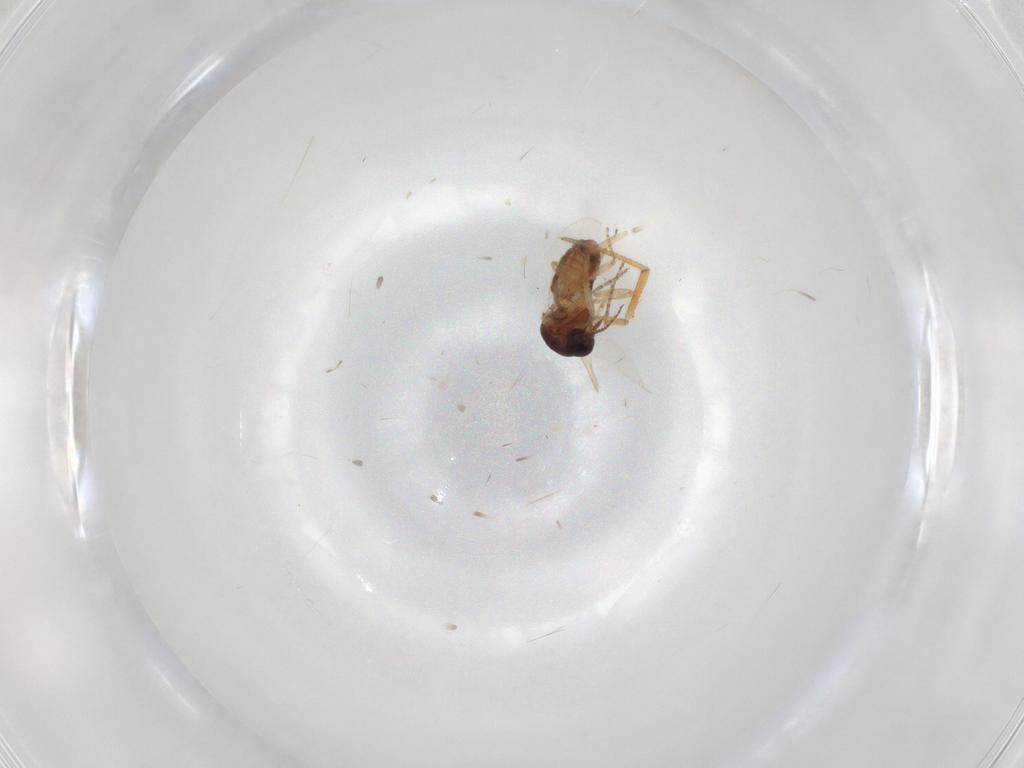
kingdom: Animalia
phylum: Arthropoda
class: Insecta
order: Diptera
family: Ceratopogonidae
